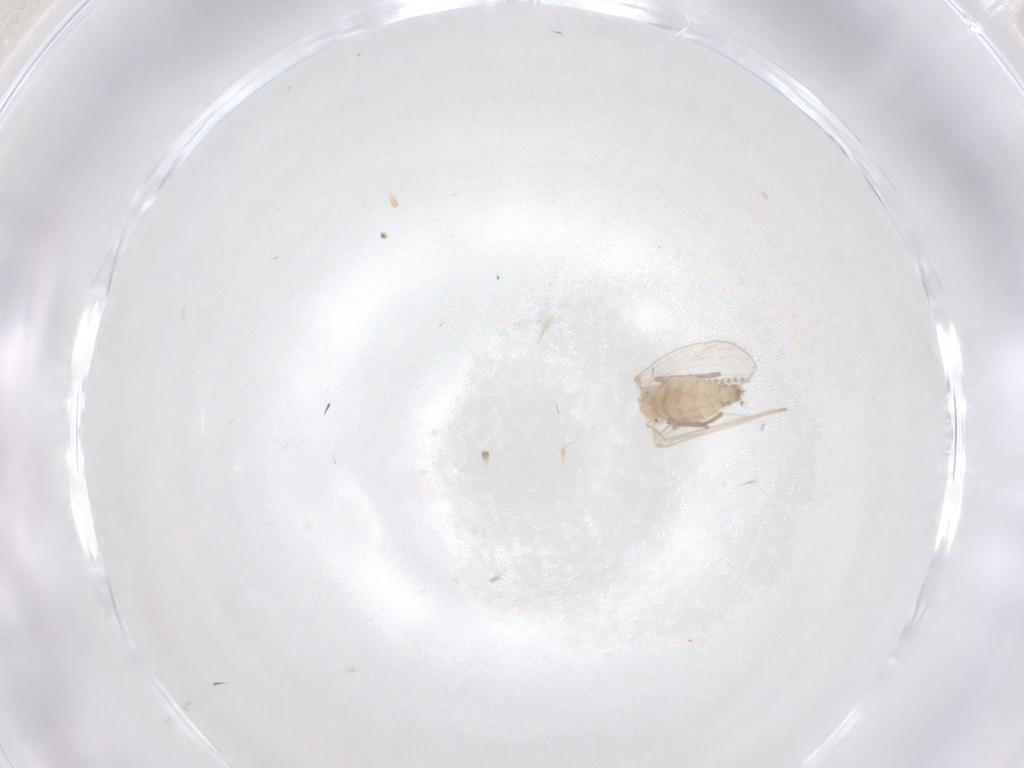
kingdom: Animalia
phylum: Arthropoda
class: Insecta
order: Diptera
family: Psychodidae
